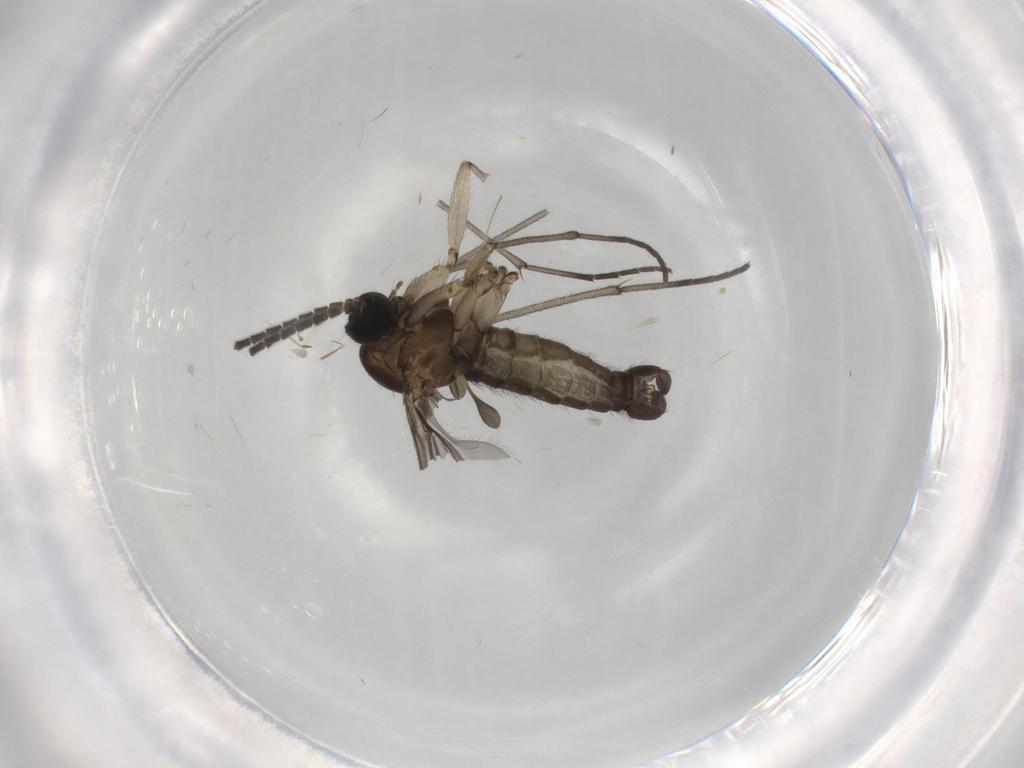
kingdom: Animalia
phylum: Arthropoda
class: Insecta
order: Diptera
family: Sciaridae
